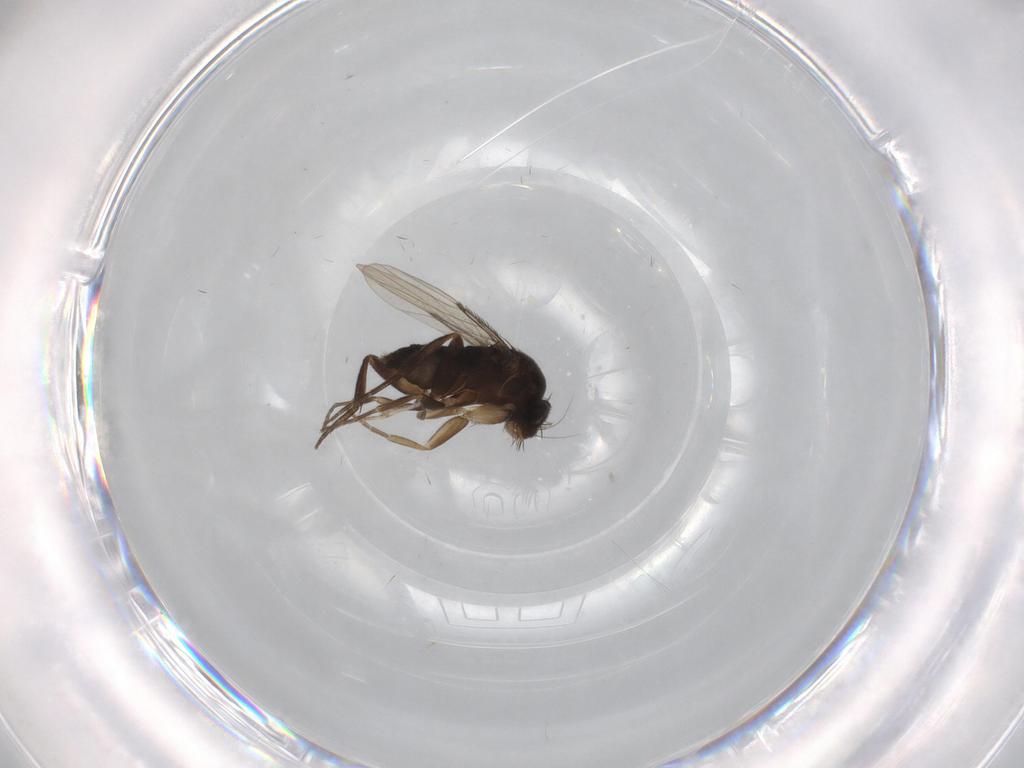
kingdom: Animalia
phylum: Arthropoda
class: Insecta
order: Diptera
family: Phoridae
